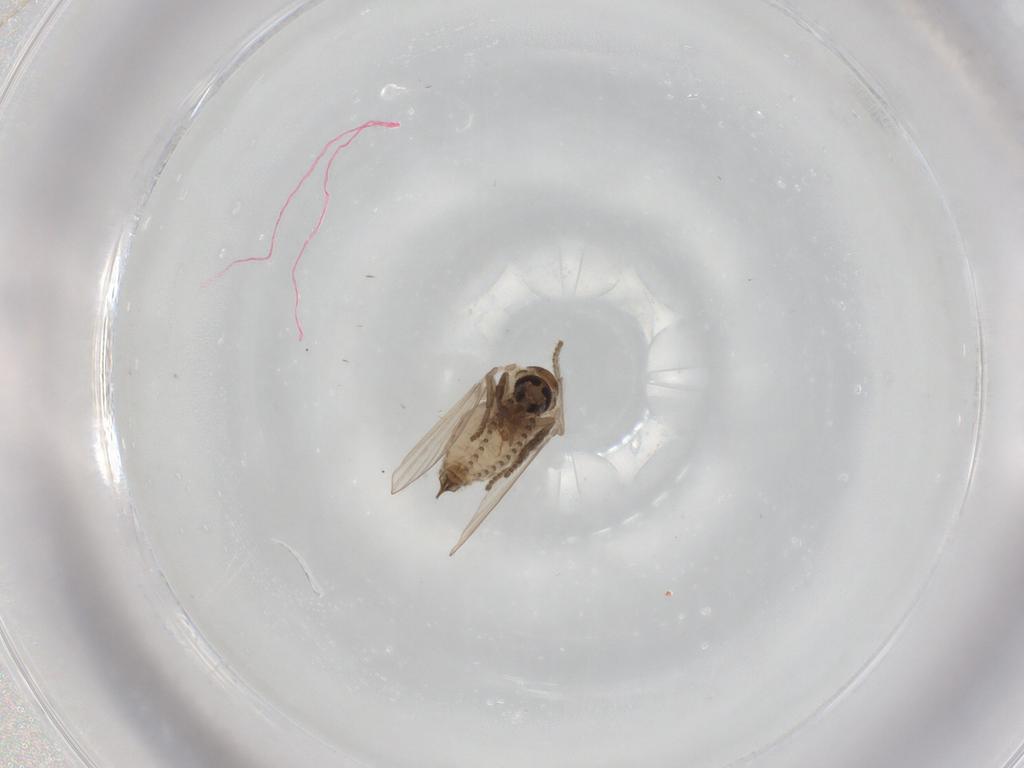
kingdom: Animalia
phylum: Arthropoda
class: Insecta
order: Diptera
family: Psychodidae
